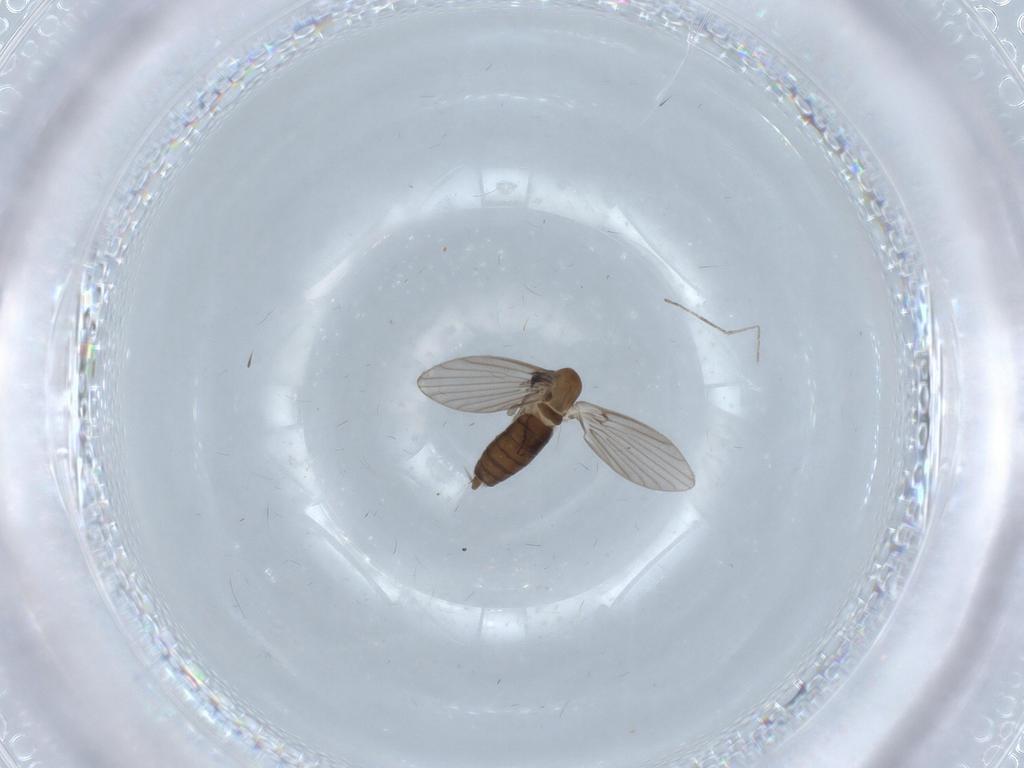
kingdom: Animalia
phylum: Arthropoda
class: Insecta
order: Diptera
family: Psychodidae
